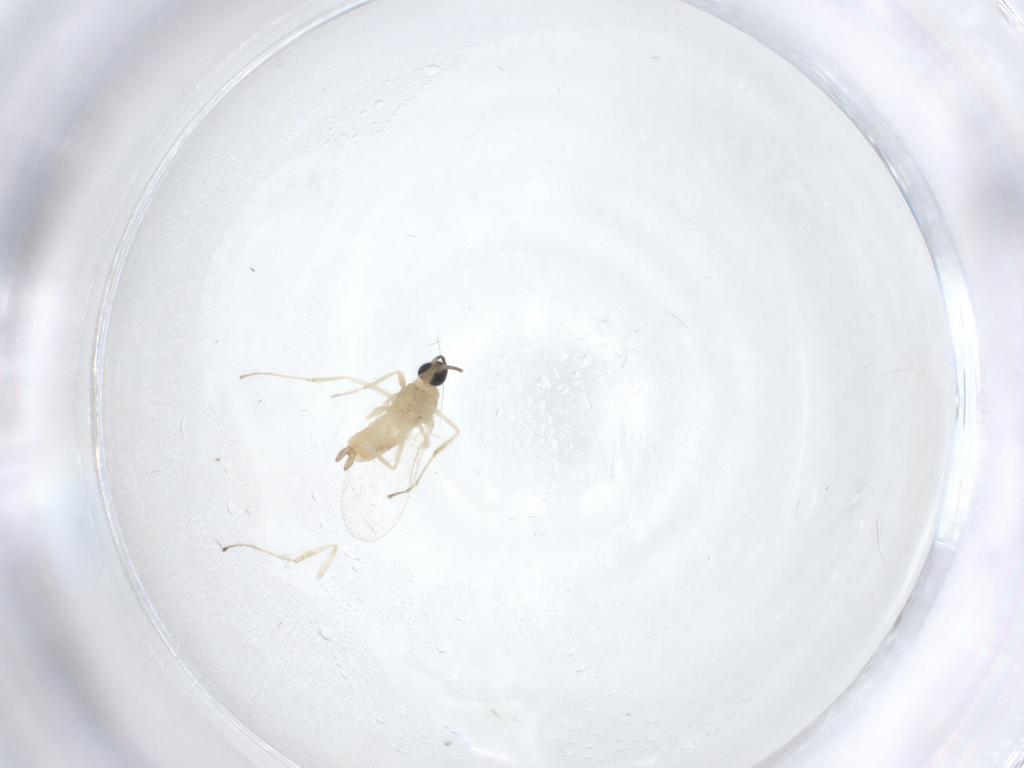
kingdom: Animalia
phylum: Arthropoda
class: Insecta
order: Diptera
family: Cecidomyiidae
